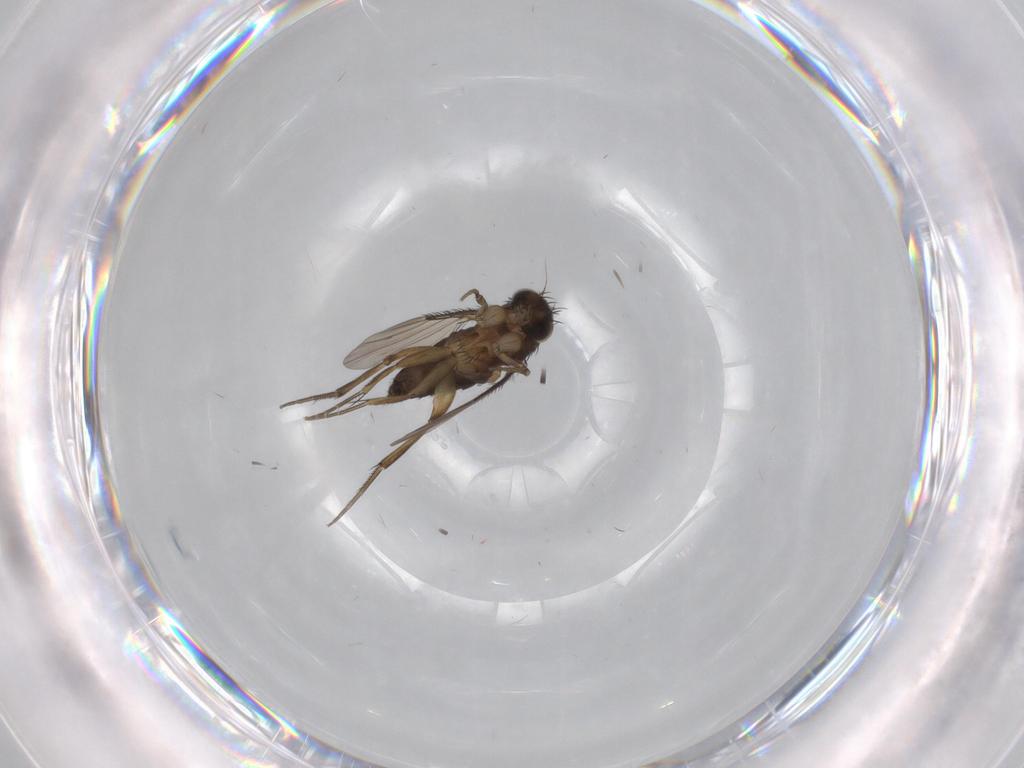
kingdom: Animalia
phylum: Arthropoda
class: Insecta
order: Diptera
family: Phoridae
